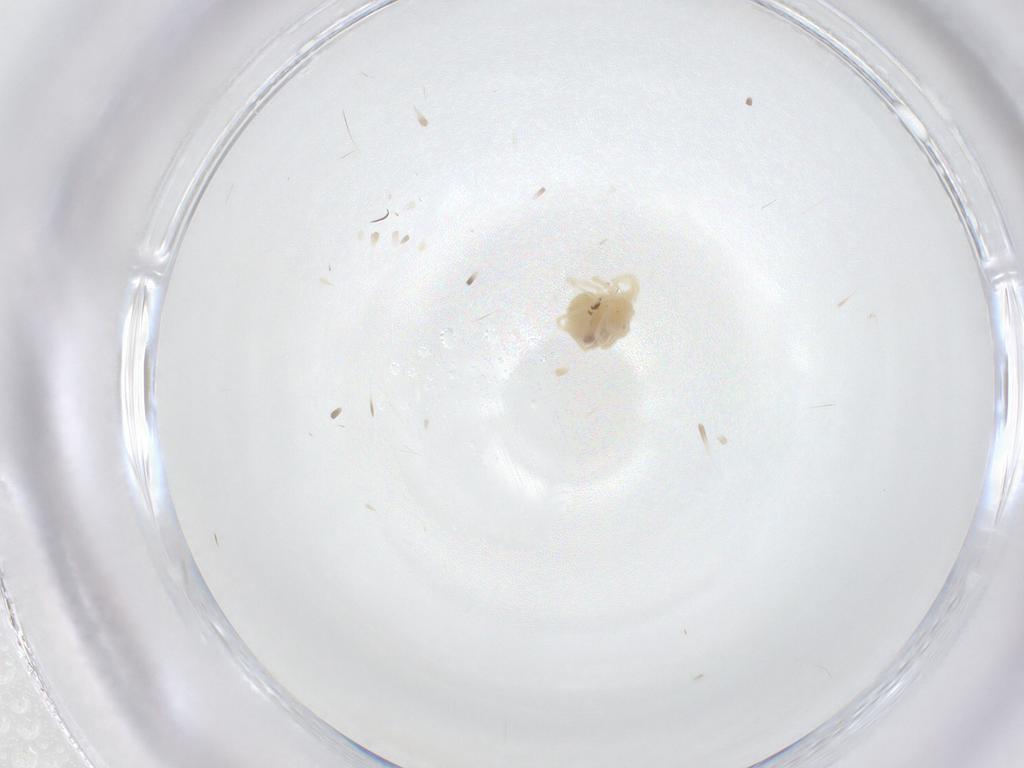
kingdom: Animalia
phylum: Arthropoda
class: Arachnida
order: Trombidiformes
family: Anystidae
